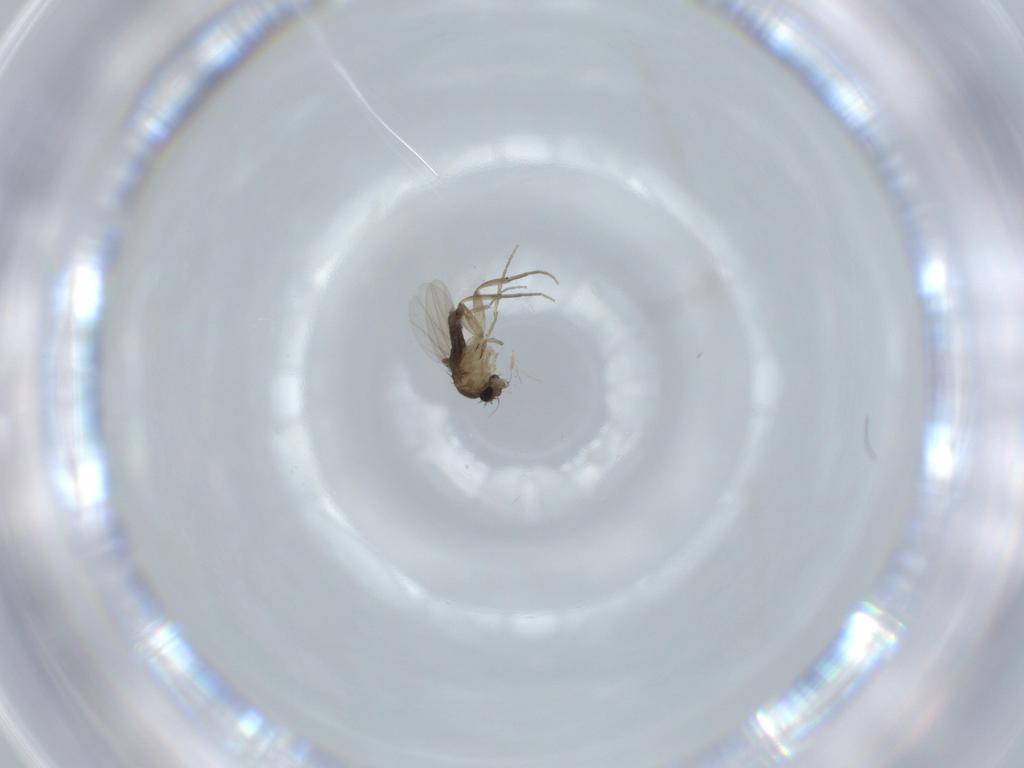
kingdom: Animalia
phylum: Arthropoda
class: Insecta
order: Diptera
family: Phoridae
